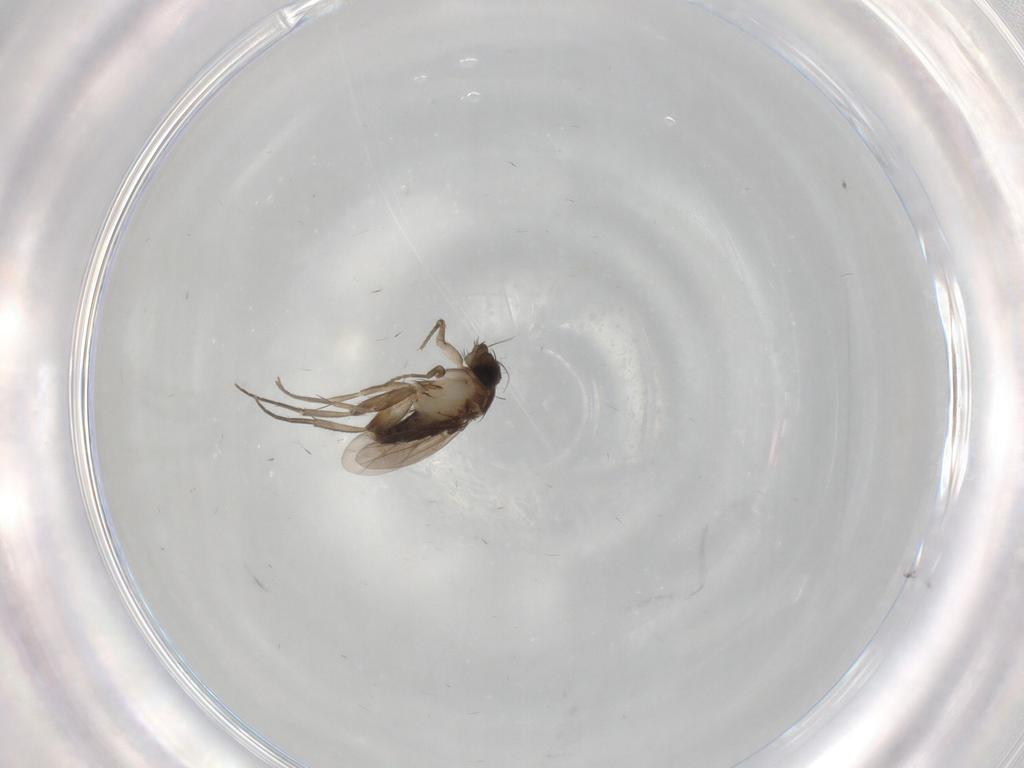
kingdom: Animalia
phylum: Arthropoda
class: Insecta
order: Diptera
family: Phoridae
